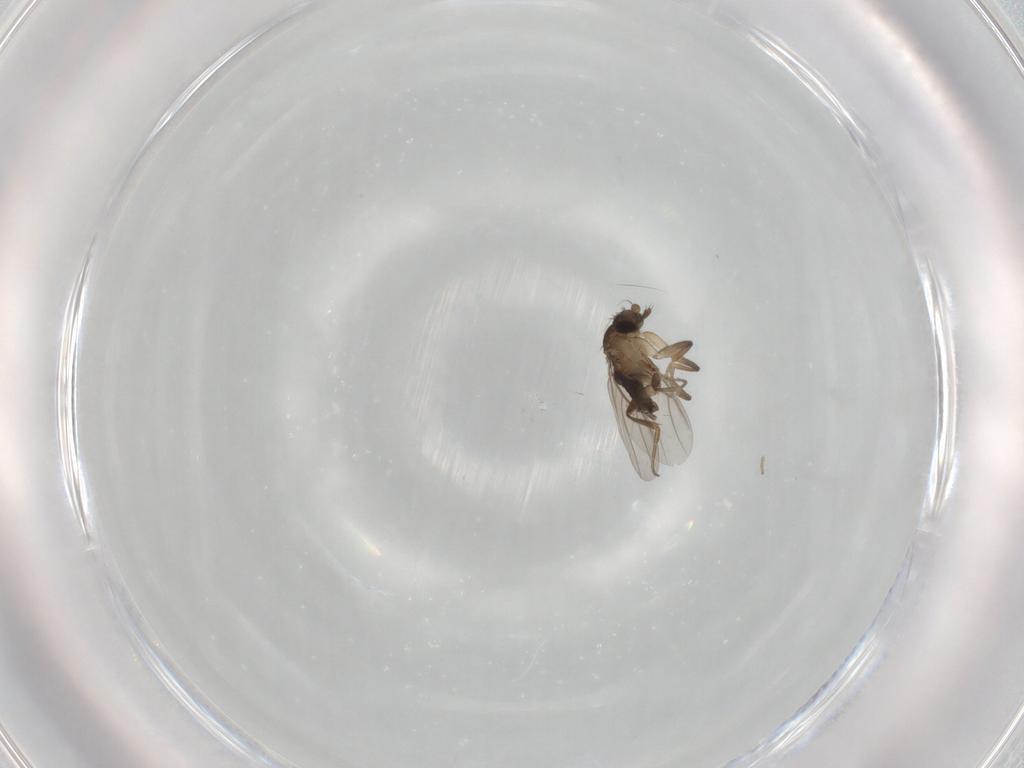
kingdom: Animalia
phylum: Arthropoda
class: Insecta
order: Diptera
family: Phoridae
